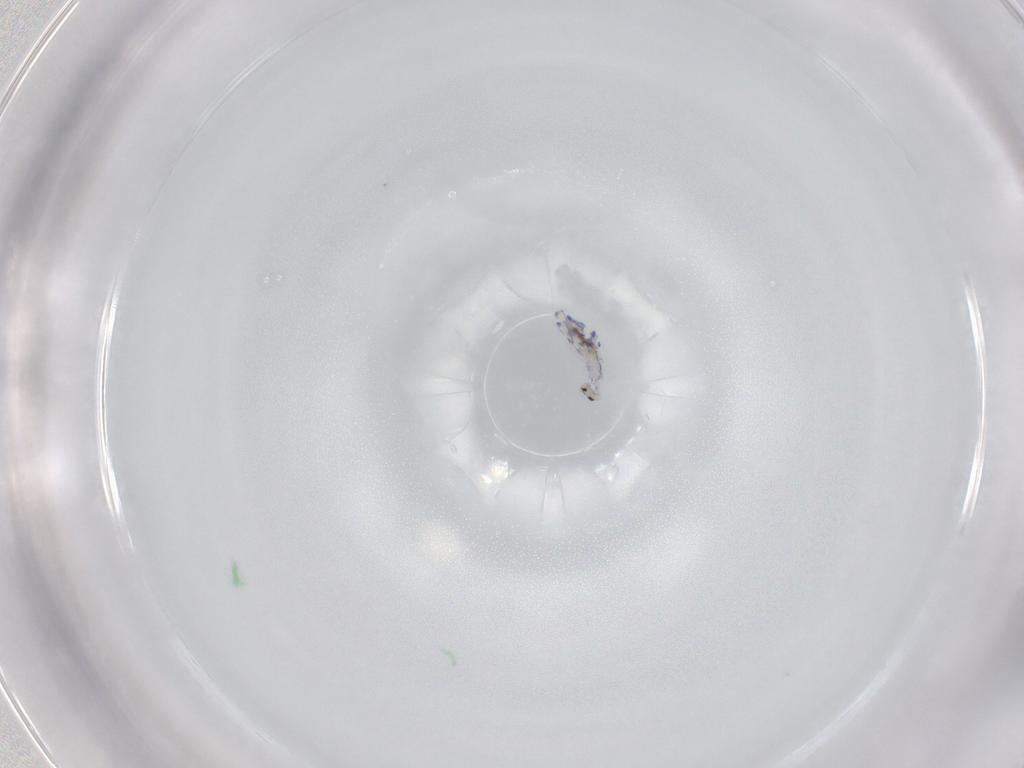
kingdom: Animalia
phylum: Arthropoda
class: Collembola
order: Entomobryomorpha
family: Entomobryidae
